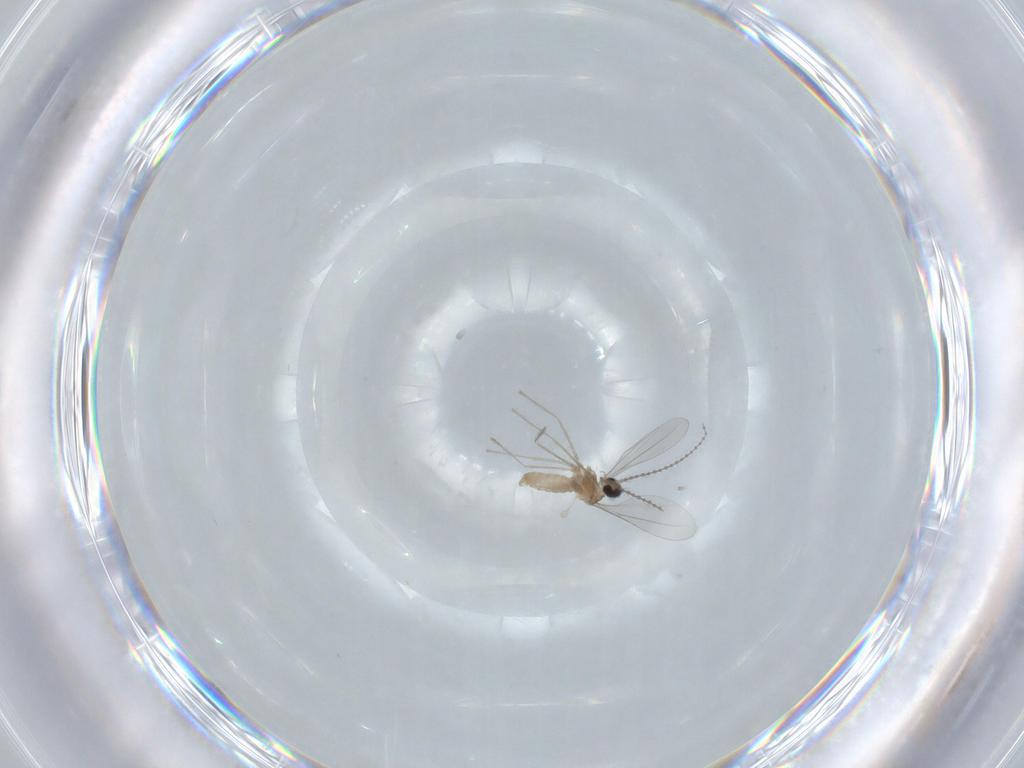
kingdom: Animalia
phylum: Arthropoda
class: Insecta
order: Diptera
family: Cecidomyiidae
